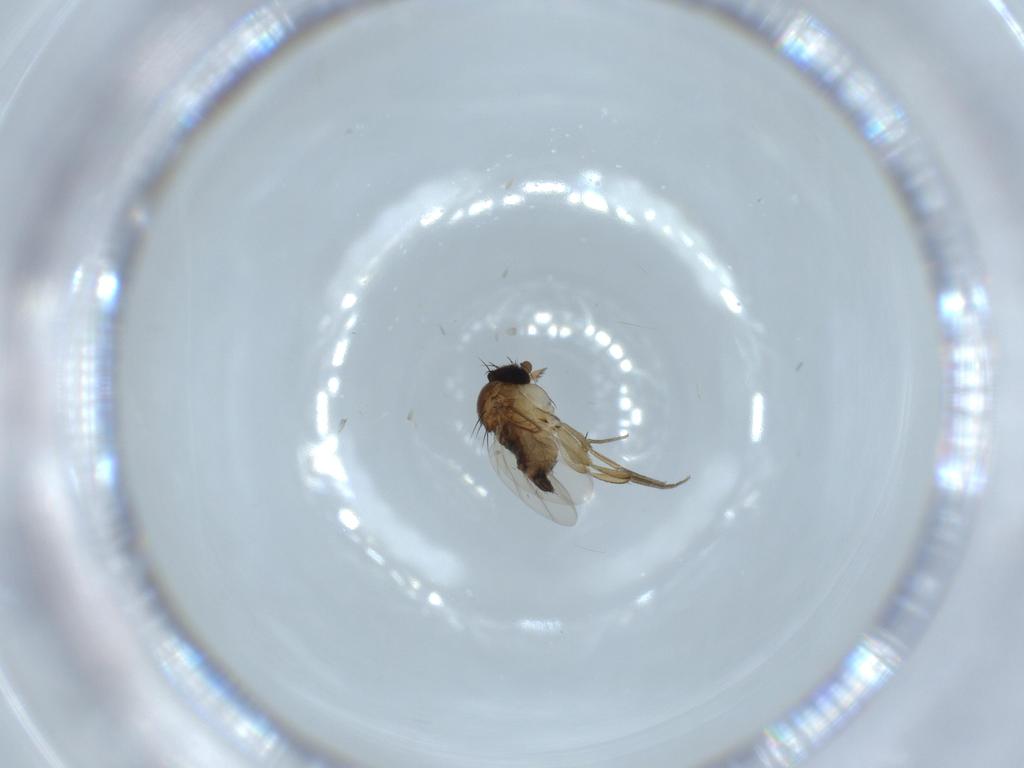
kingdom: Animalia
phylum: Arthropoda
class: Insecta
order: Diptera
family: Phoridae
